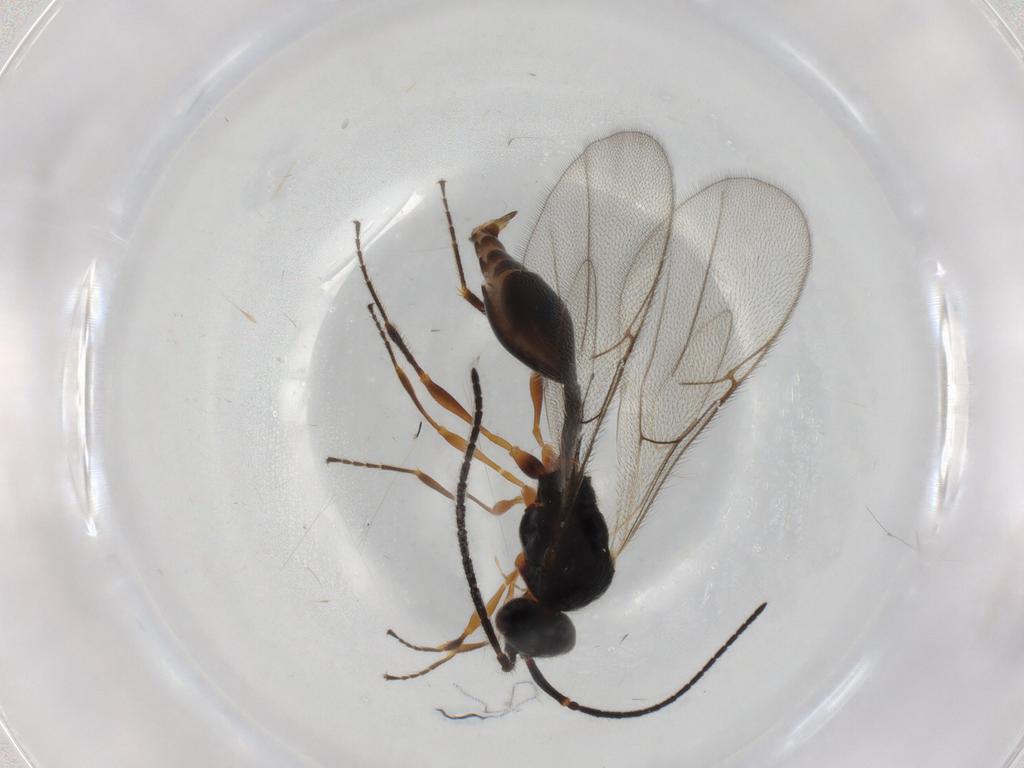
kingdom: Animalia
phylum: Arthropoda
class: Insecta
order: Hymenoptera
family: Diapriidae
